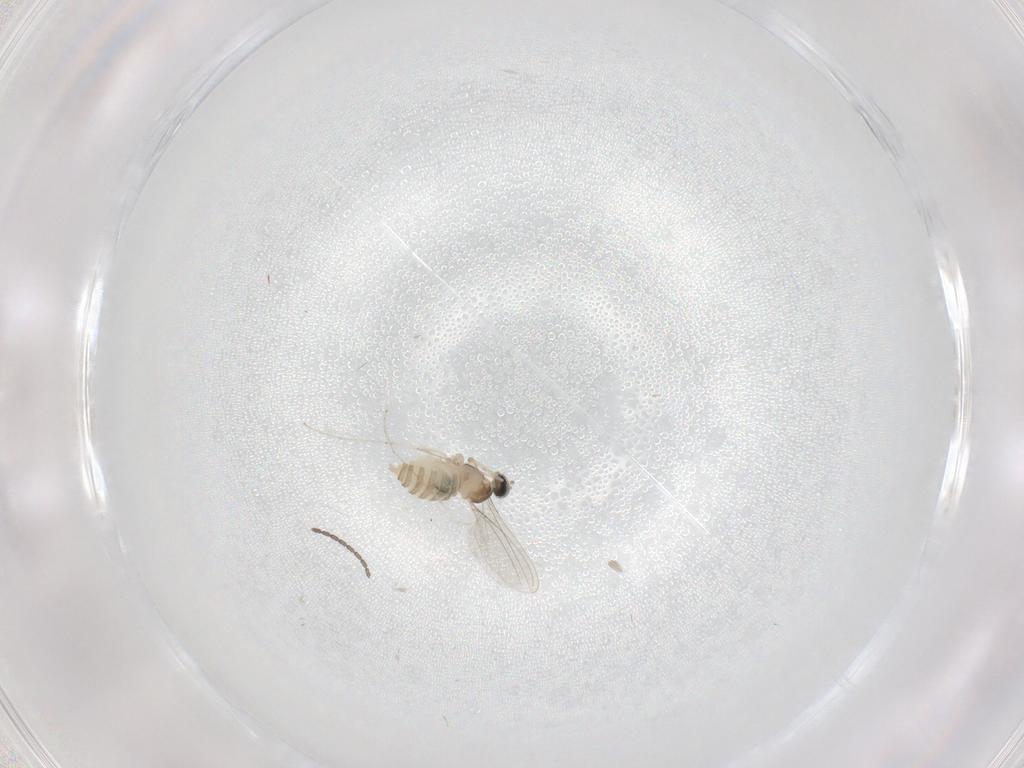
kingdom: Animalia
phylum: Arthropoda
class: Insecta
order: Diptera
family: Cecidomyiidae
